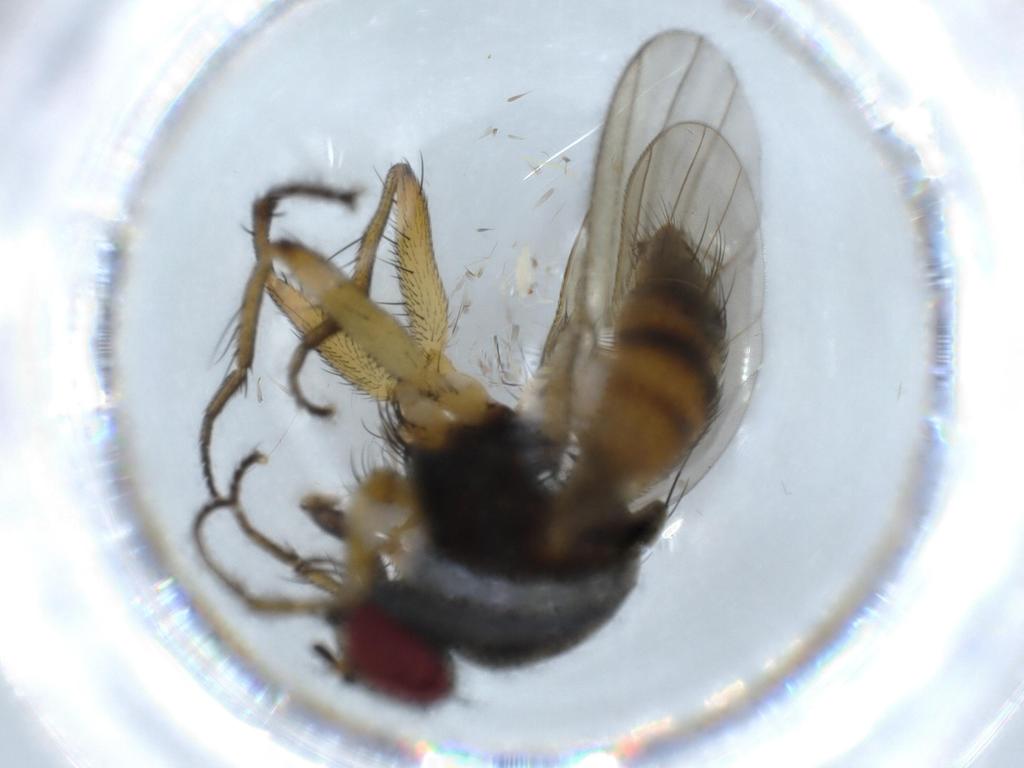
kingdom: Animalia
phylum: Arthropoda
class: Insecta
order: Diptera
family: Muscidae
